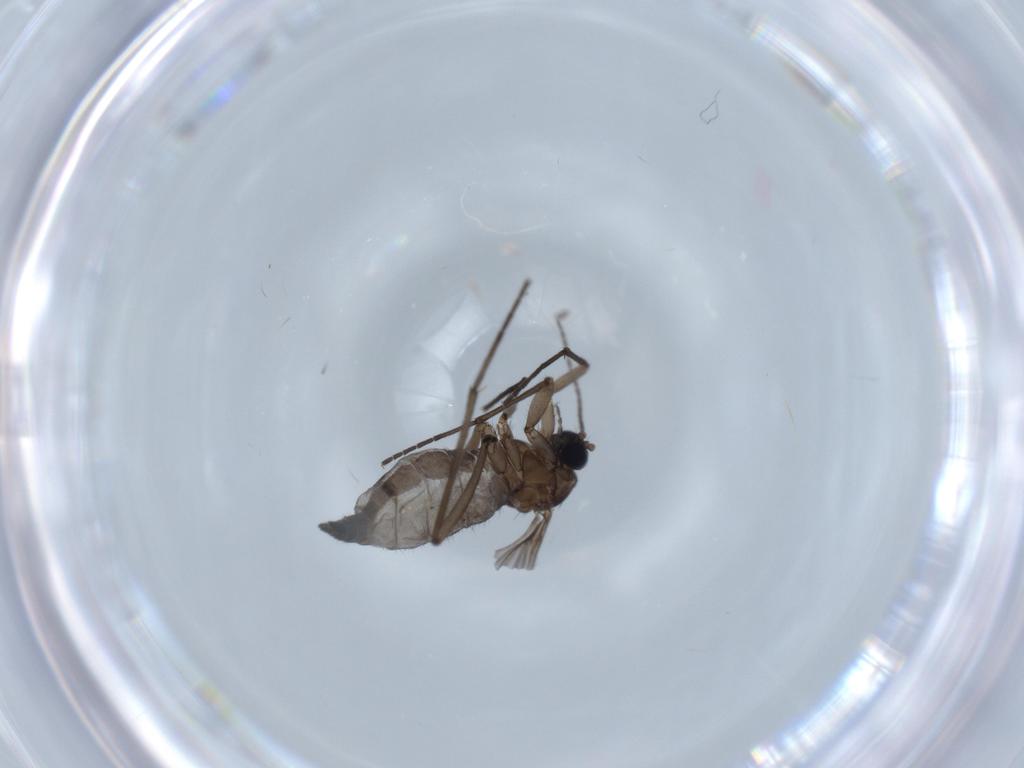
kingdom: Animalia
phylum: Arthropoda
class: Insecta
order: Diptera
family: Sciaridae
